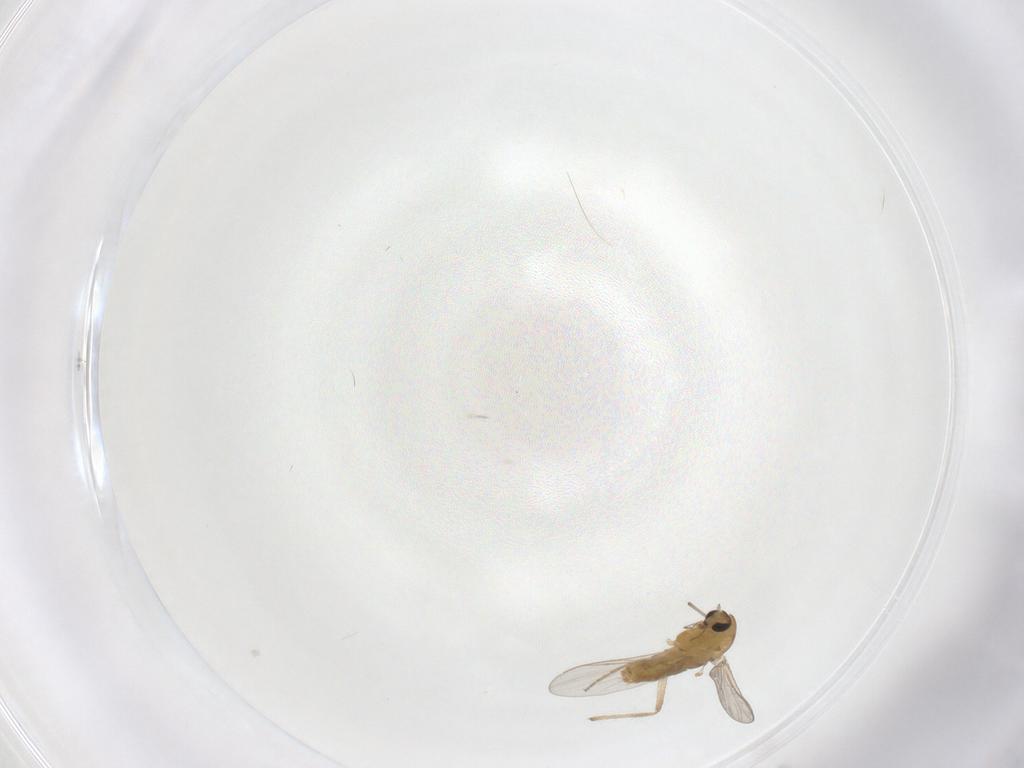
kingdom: Animalia
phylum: Arthropoda
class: Insecta
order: Diptera
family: Chironomidae
